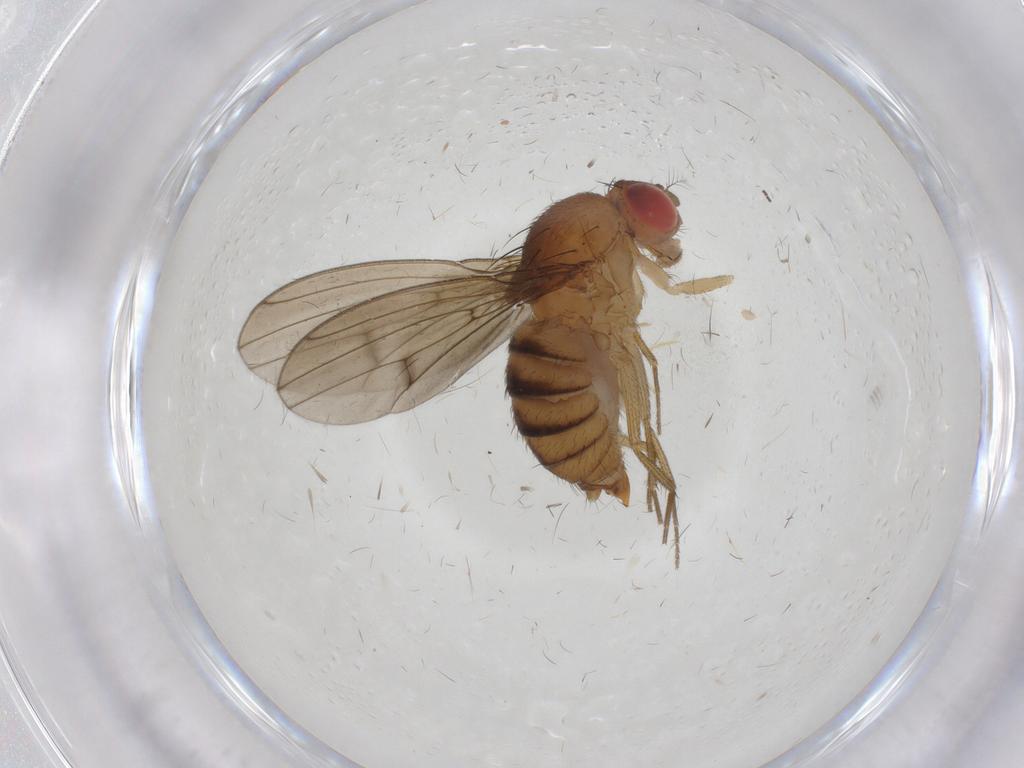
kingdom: Animalia
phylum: Arthropoda
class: Insecta
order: Diptera
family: Drosophilidae
